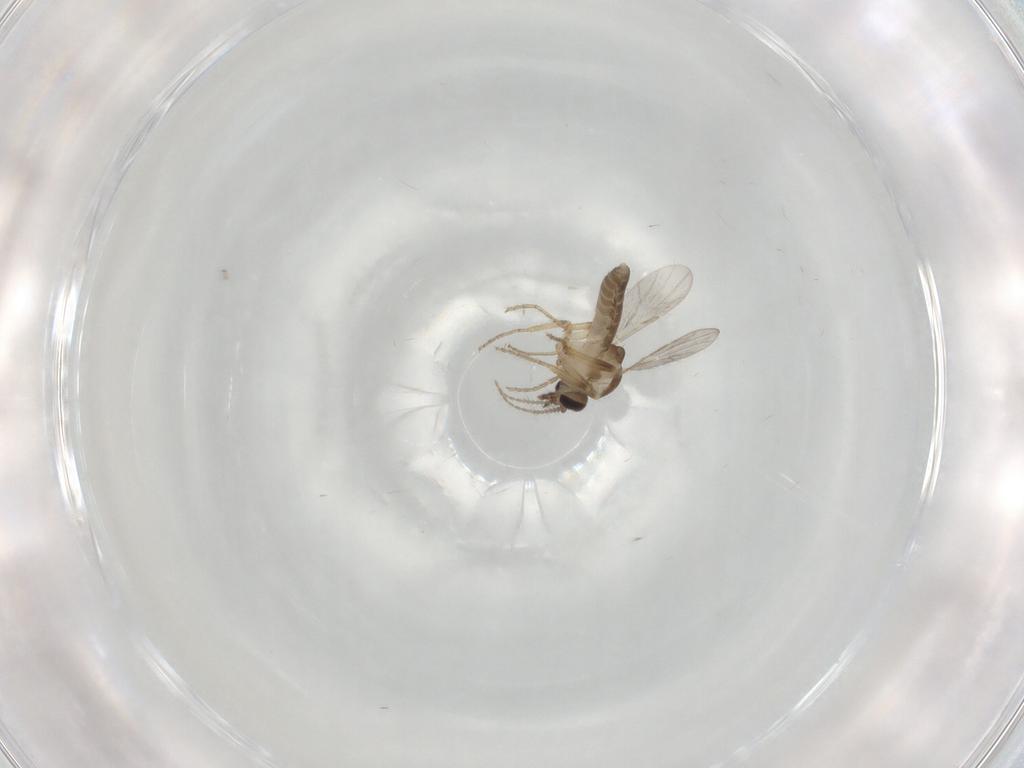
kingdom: Animalia
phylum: Arthropoda
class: Insecta
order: Diptera
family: Ceratopogonidae
